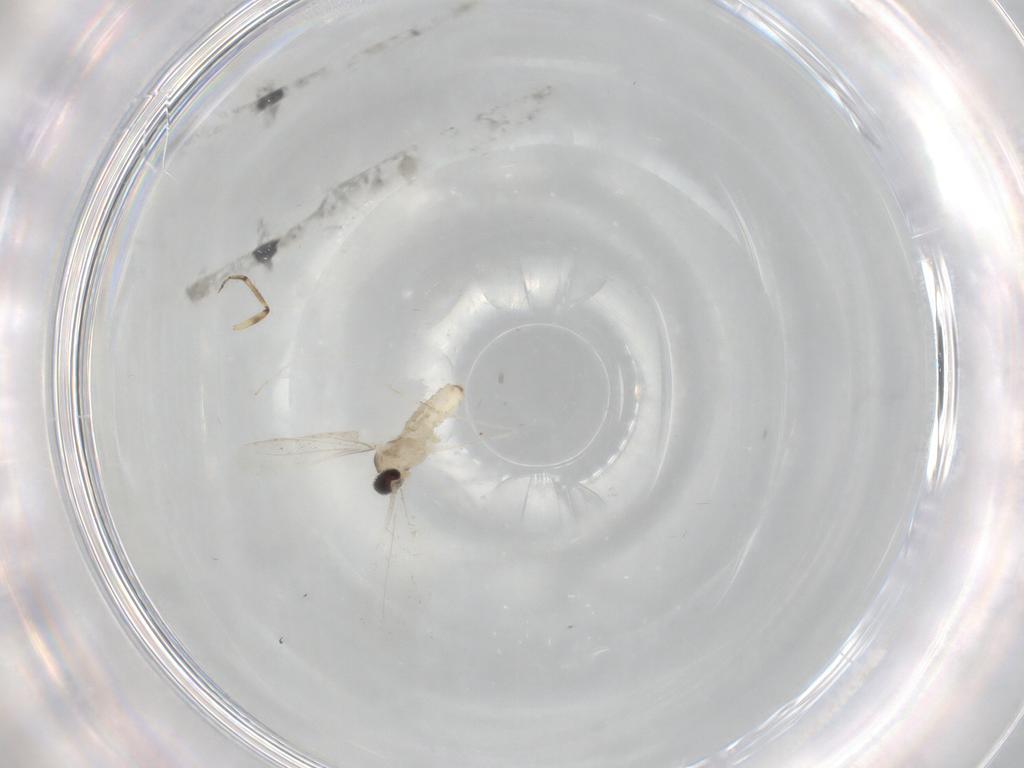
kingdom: Animalia
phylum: Arthropoda
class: Insecta
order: Diptera
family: Cecidomyiidae
